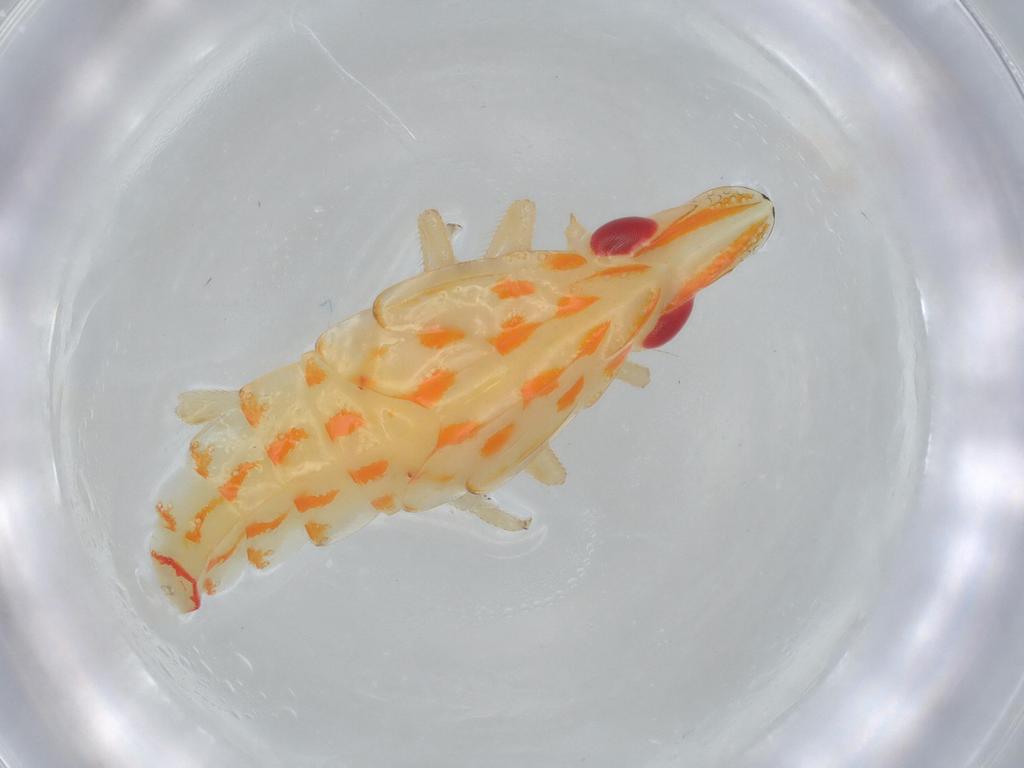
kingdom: Animalia
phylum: Arthropoda
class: Insecta
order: Hemiptera
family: Tropiduchidae
